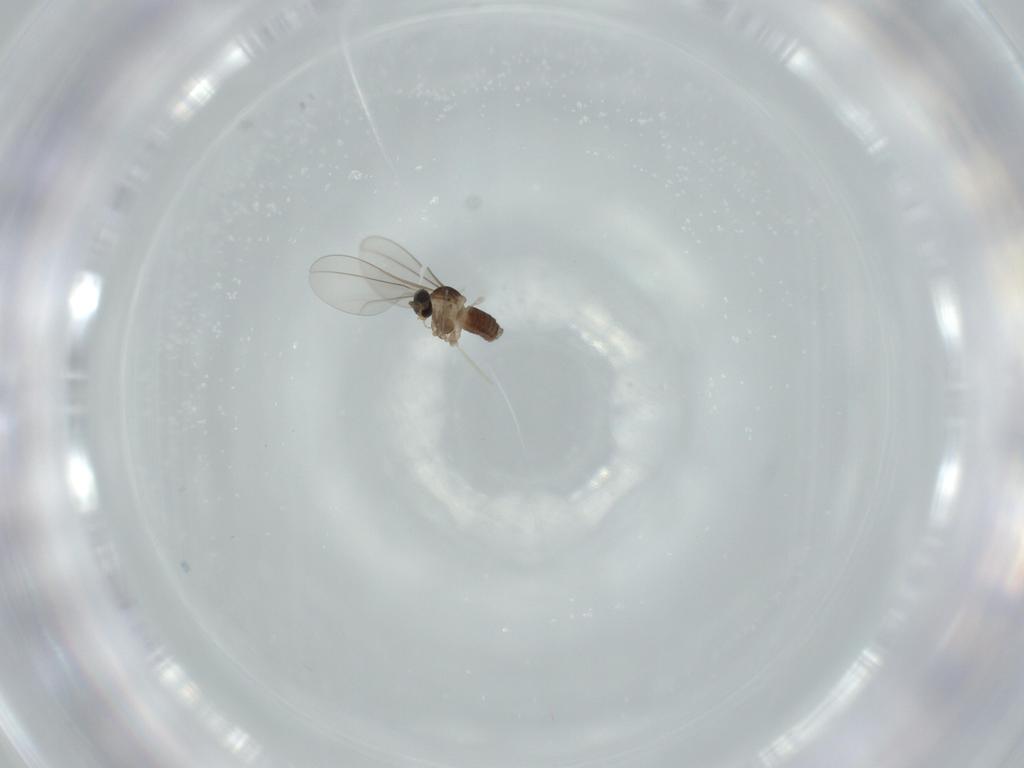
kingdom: Animalia
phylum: Arthropoda
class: Insecta
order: Diptera
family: Cecidomyiidae
